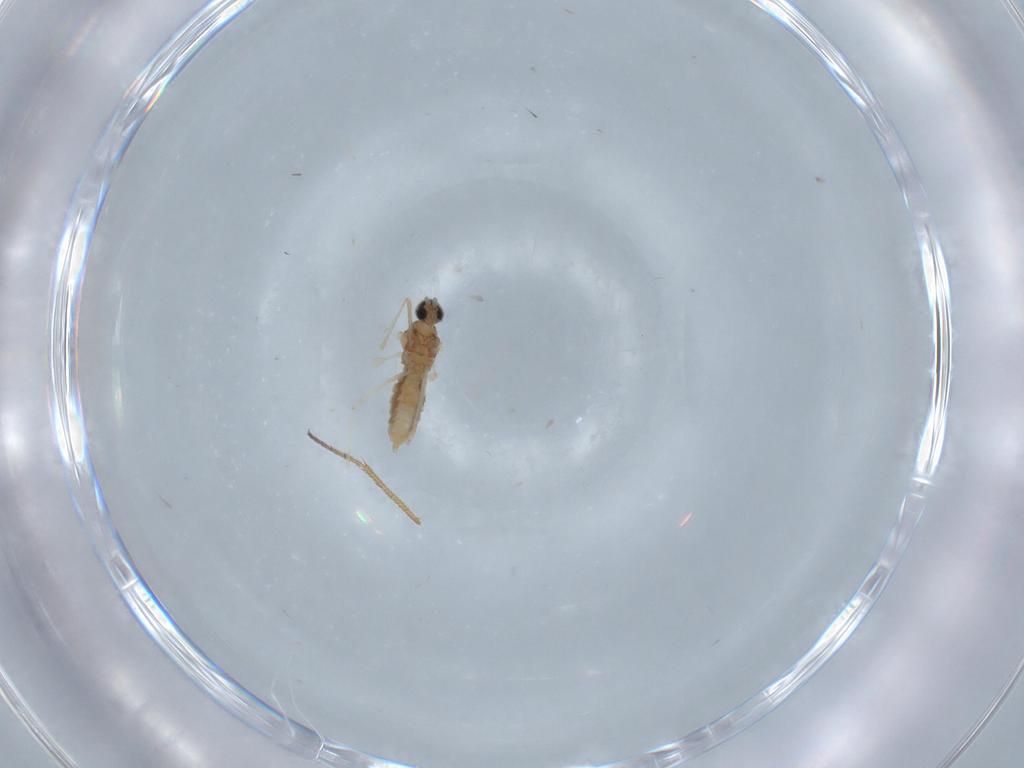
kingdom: Animalia
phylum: Arthropoda
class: Insecta
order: Diptera
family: Cecidomyiidae
